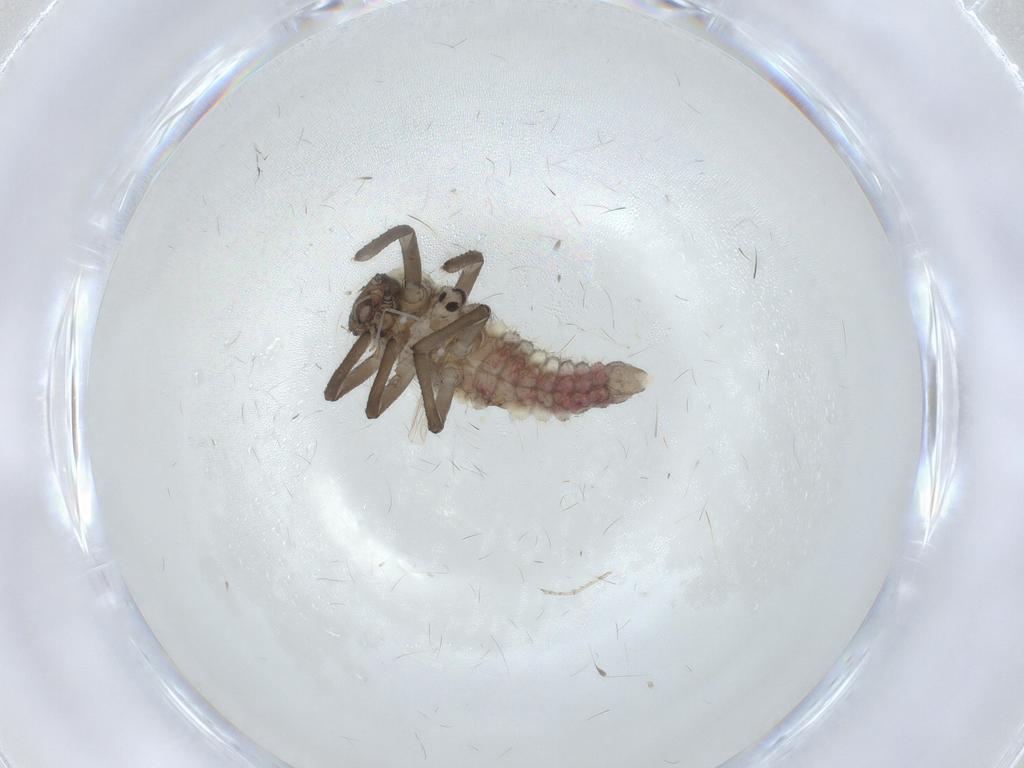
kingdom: Animalia
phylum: Arthropoda
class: Insecta
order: Diptera
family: Cecidomyiidae
